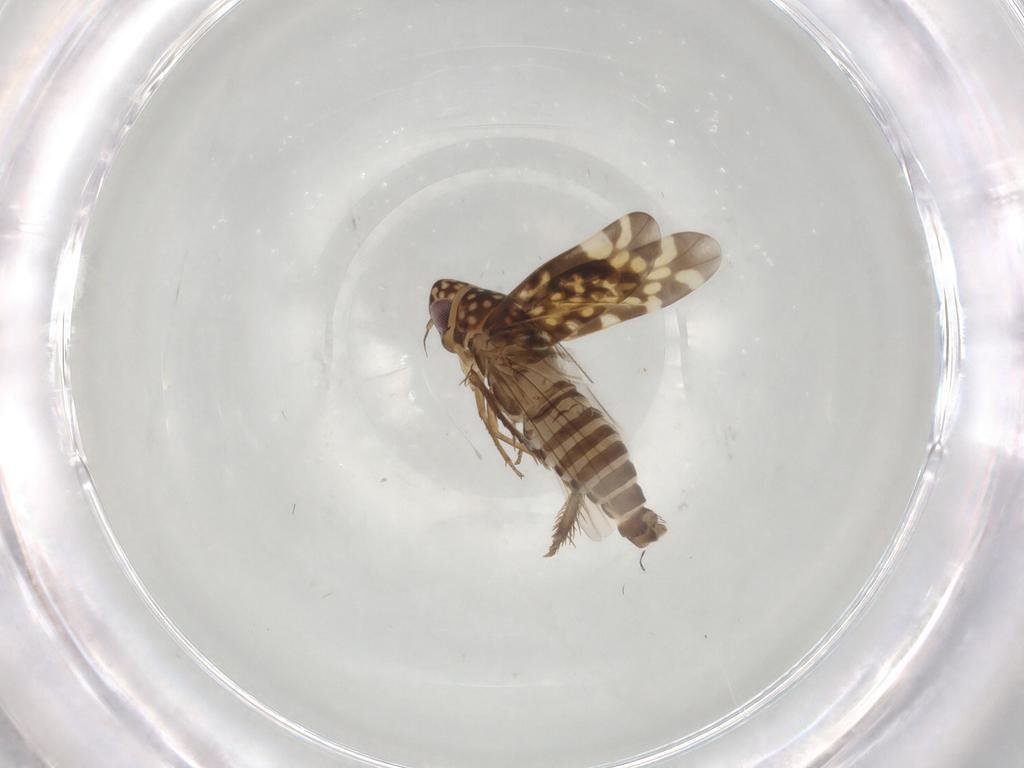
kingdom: Animalia
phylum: Arthropoda
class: Insecta
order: Hemiptera
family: Cicadellidae
